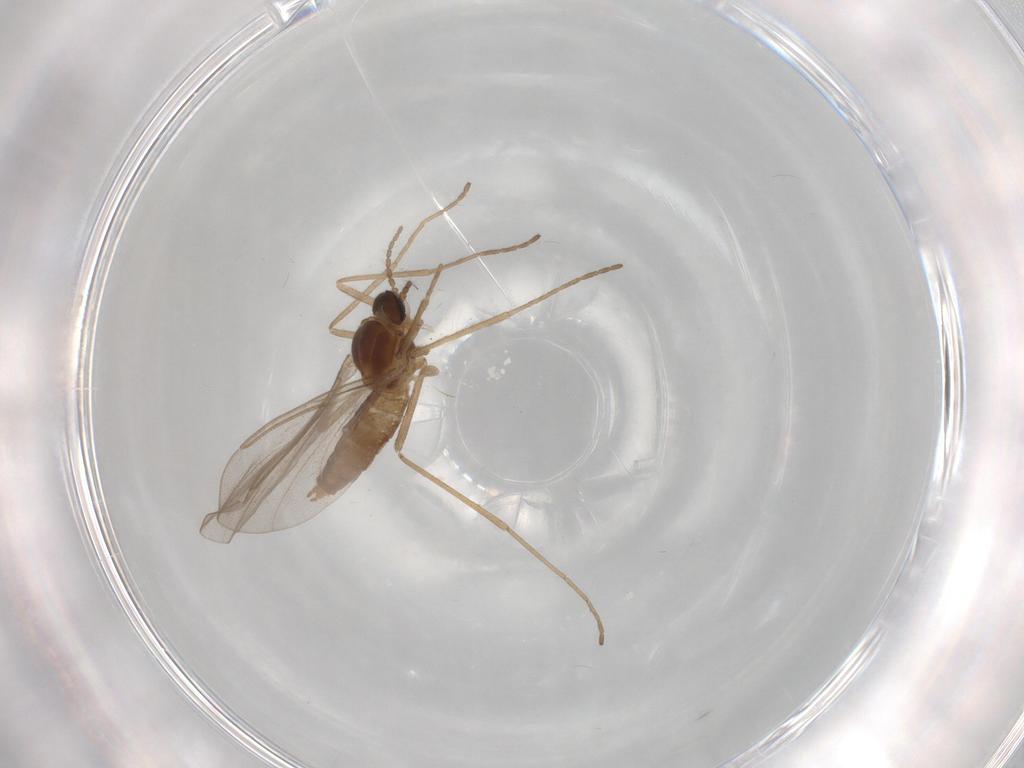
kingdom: Animalia
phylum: Arthropoda
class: Insecta
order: Diptera
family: Cecidomyiidae
